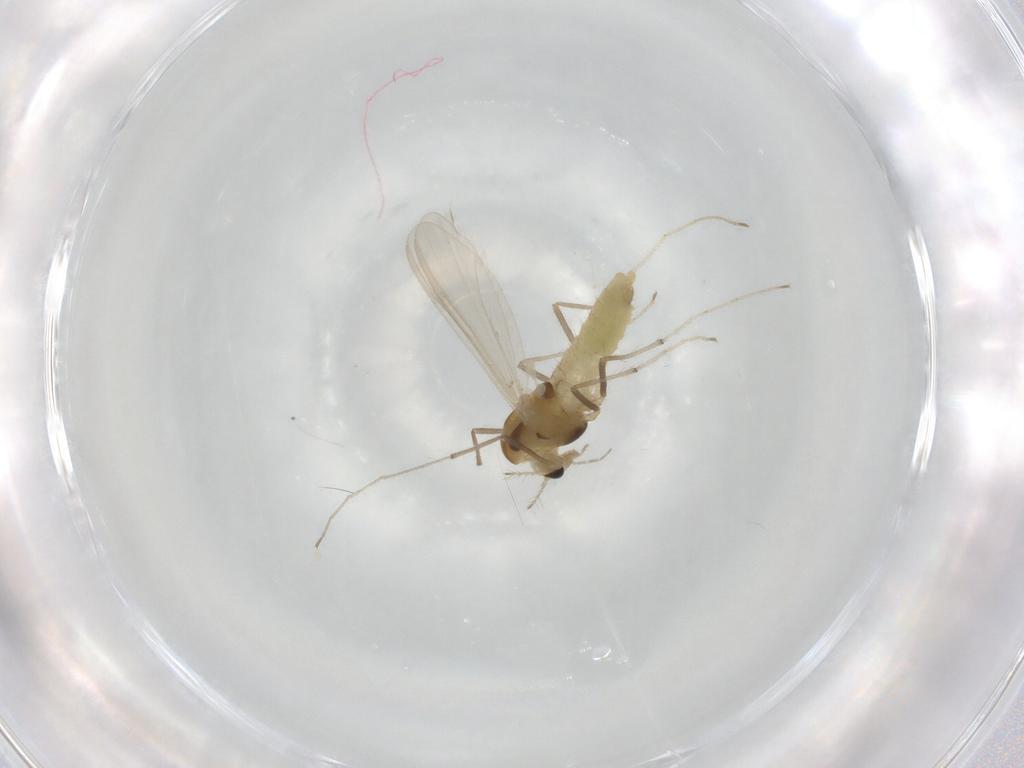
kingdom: Animalia
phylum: Arthropoda
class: Insecta
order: Diptera
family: Chironomidae
